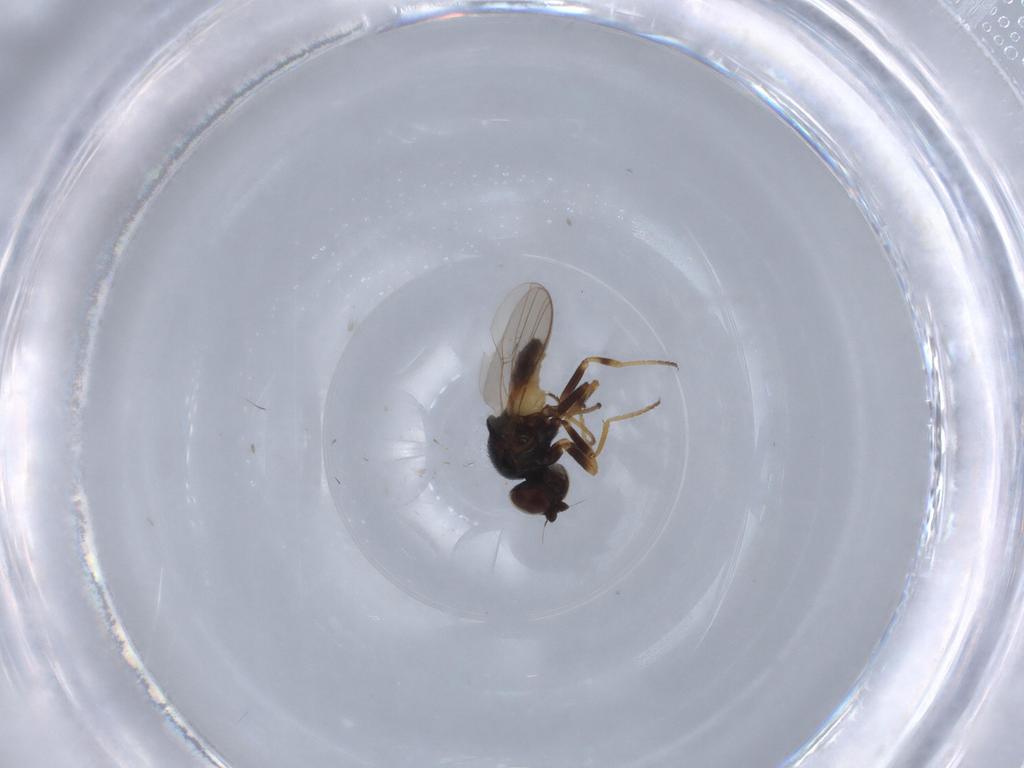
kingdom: Animalia
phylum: Arthropoda
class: Insecta
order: Diptera
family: Chloropidae
